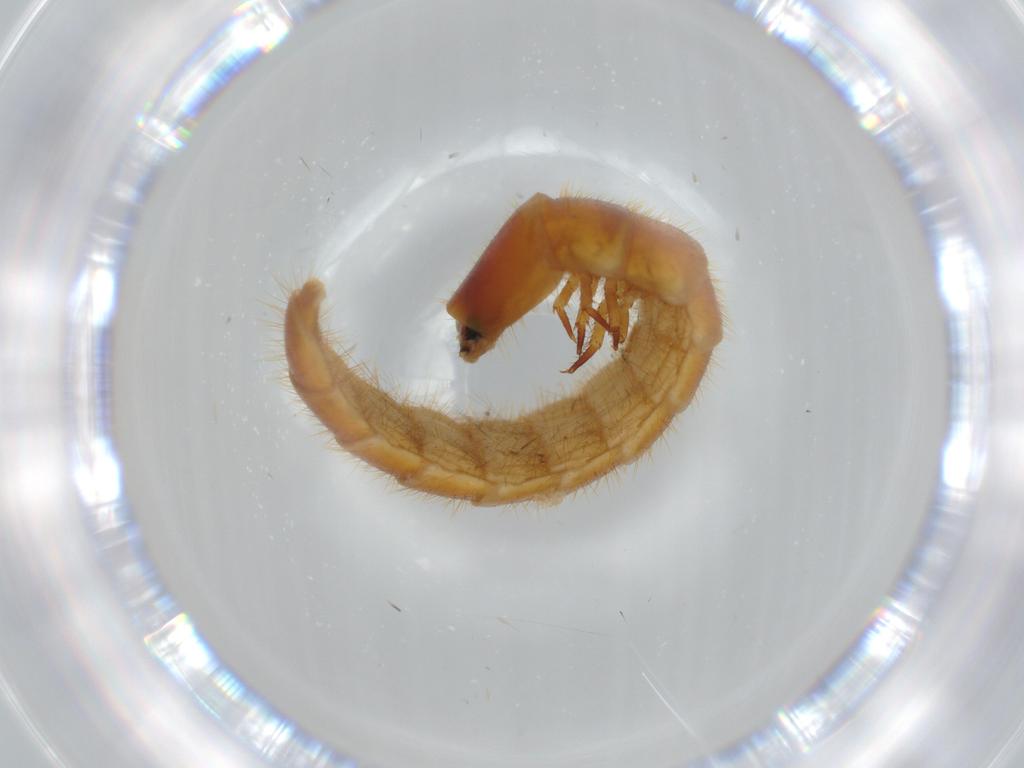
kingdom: Animalia
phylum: Arthropoda
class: Insecta
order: Coleoptera
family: Phengodidae
